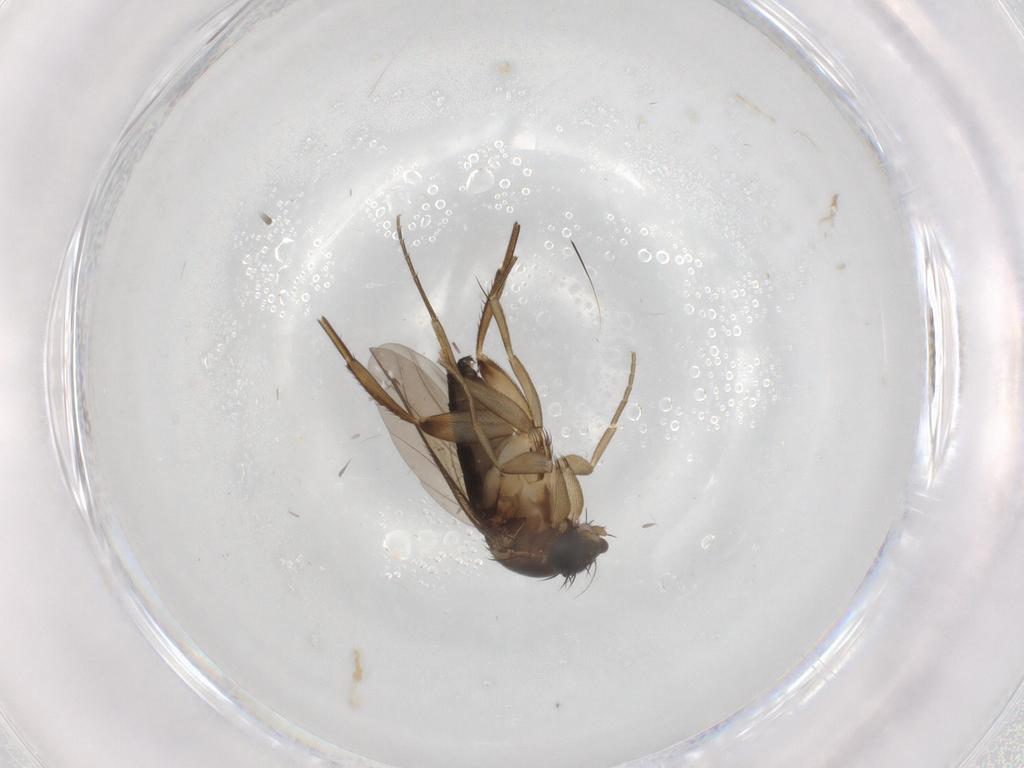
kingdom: Animalia
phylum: Arthropoda
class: Insecta
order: Diptera
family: Phoridae
